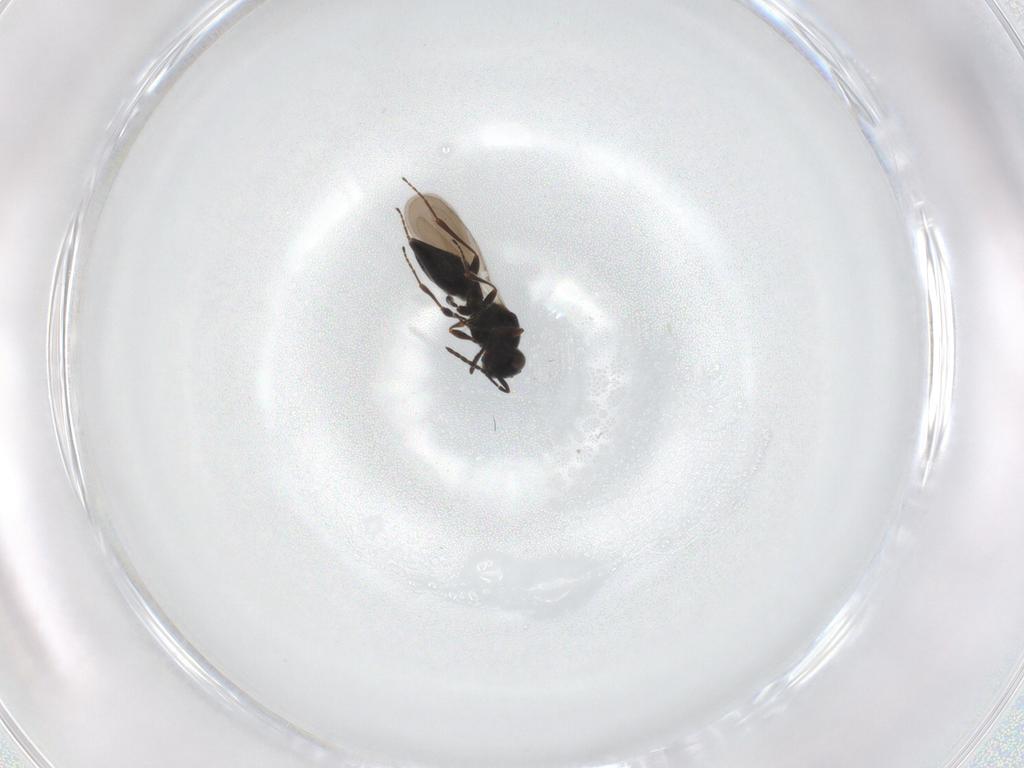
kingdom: Animalia
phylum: Arthropoda
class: Insecta
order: Hymenoptera
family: Platygastridae
